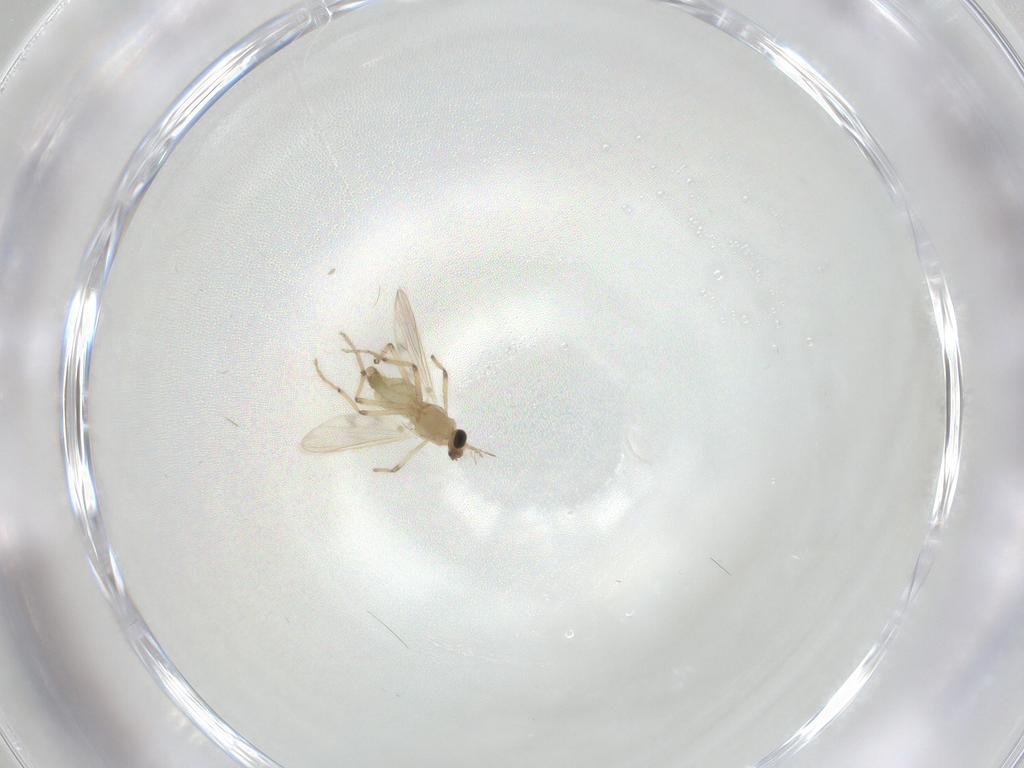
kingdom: Animalia
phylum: Arthropoda
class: Insecta
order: Diptera
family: Chironomidae
